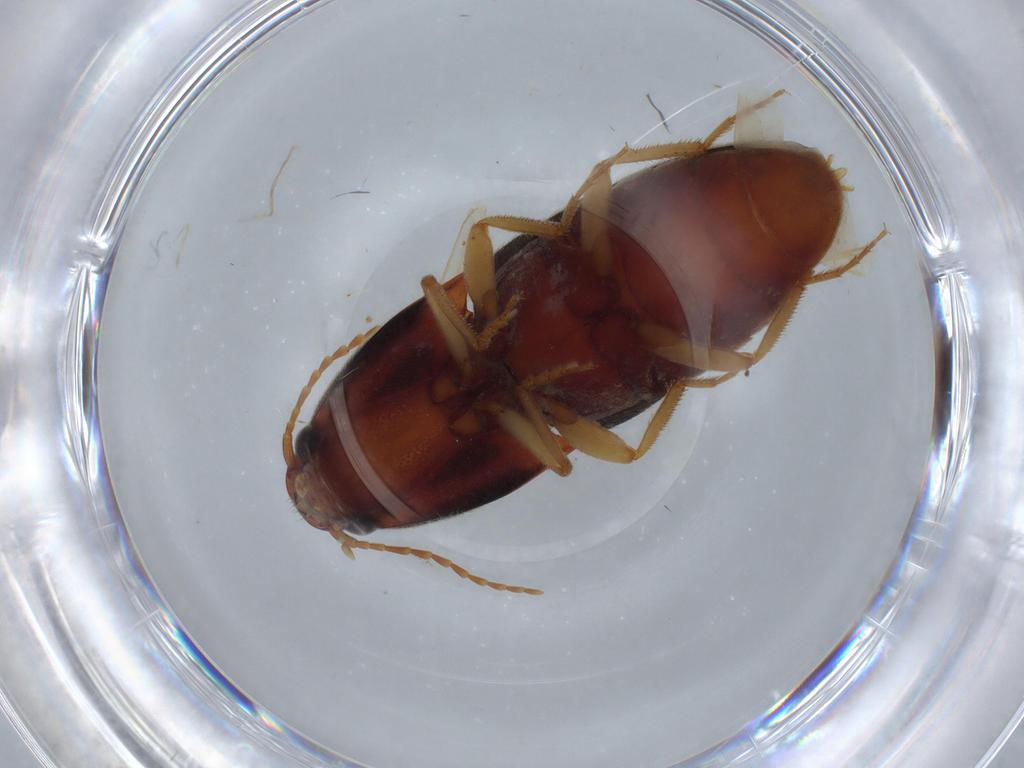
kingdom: Animalia
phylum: Arthropoda
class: Insecta
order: Coleoptera
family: Elateridae
